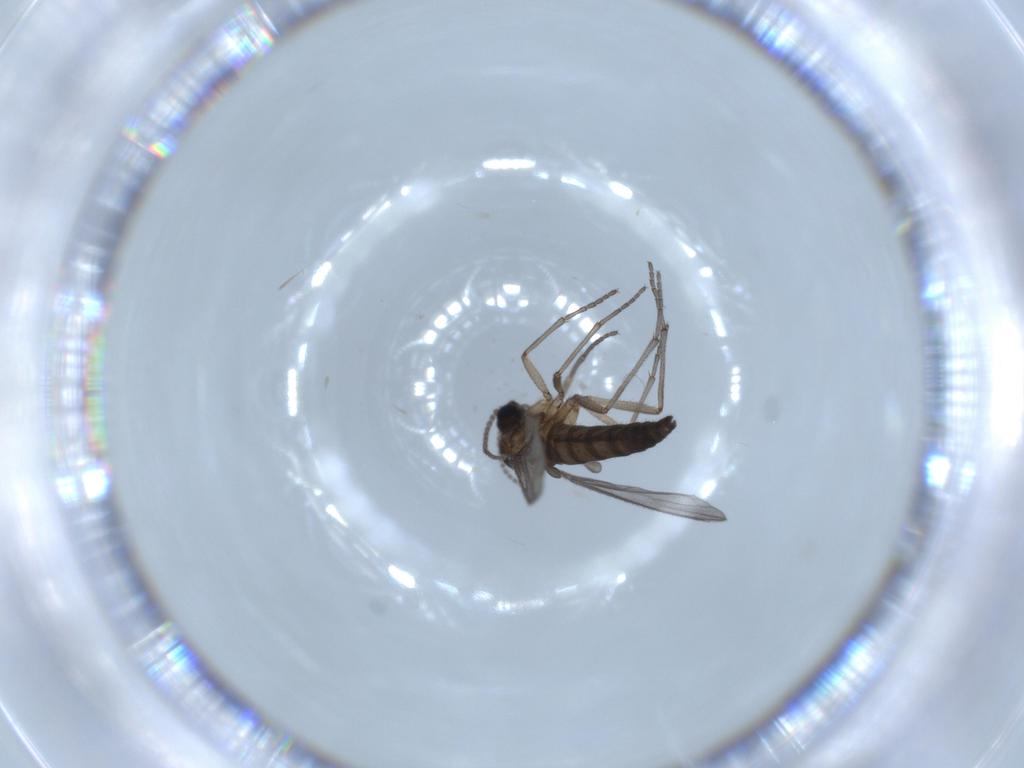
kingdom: Animalia
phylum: Arthropoda
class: Insecta
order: Diptera
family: Sciaridae
